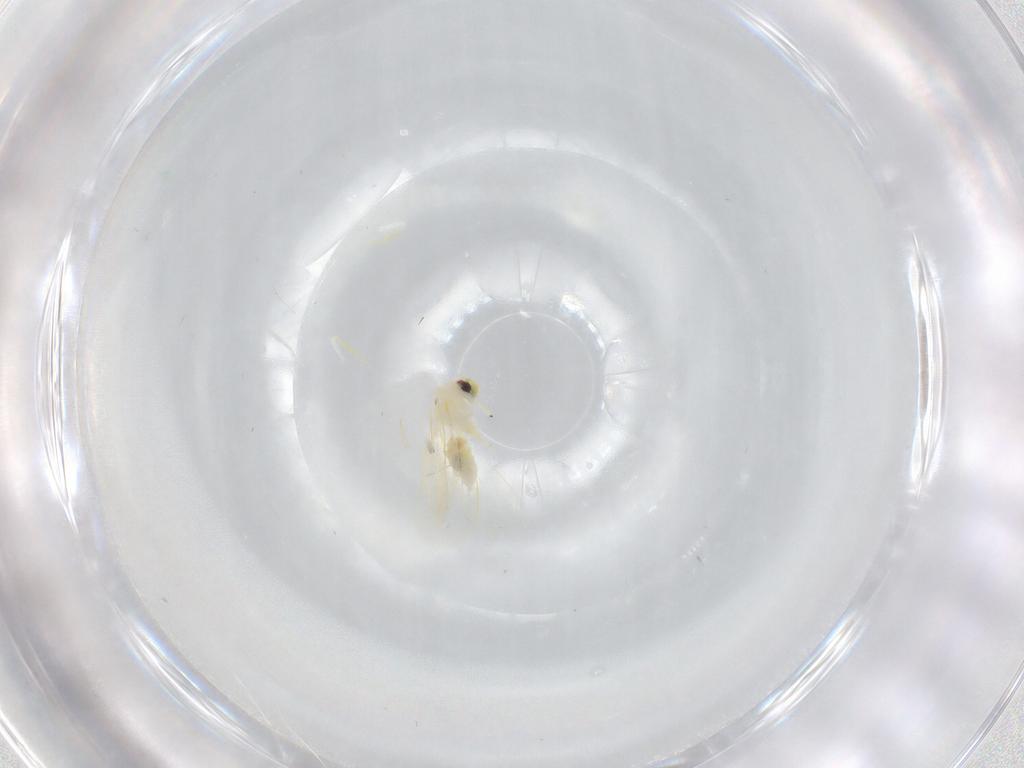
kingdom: Animalia
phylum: Arthropoda
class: Insecta
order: Hemiptera
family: Aleyrodidae
